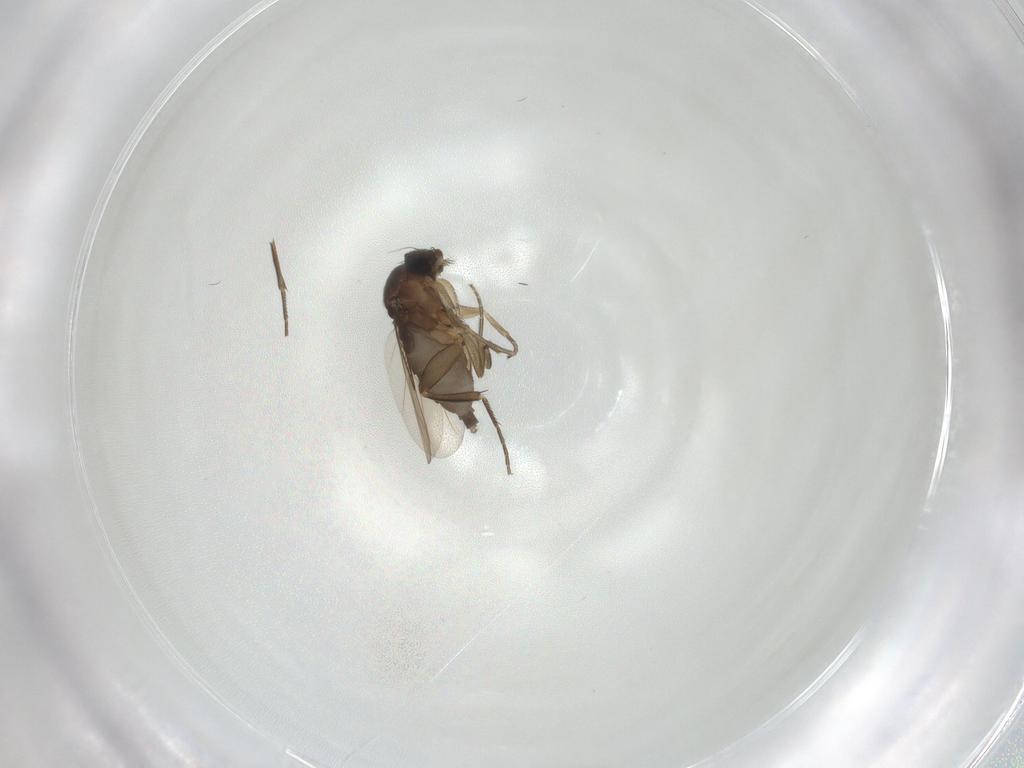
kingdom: Animalia
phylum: Arthropoda
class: Insecta
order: Diptera
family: Phoridae
